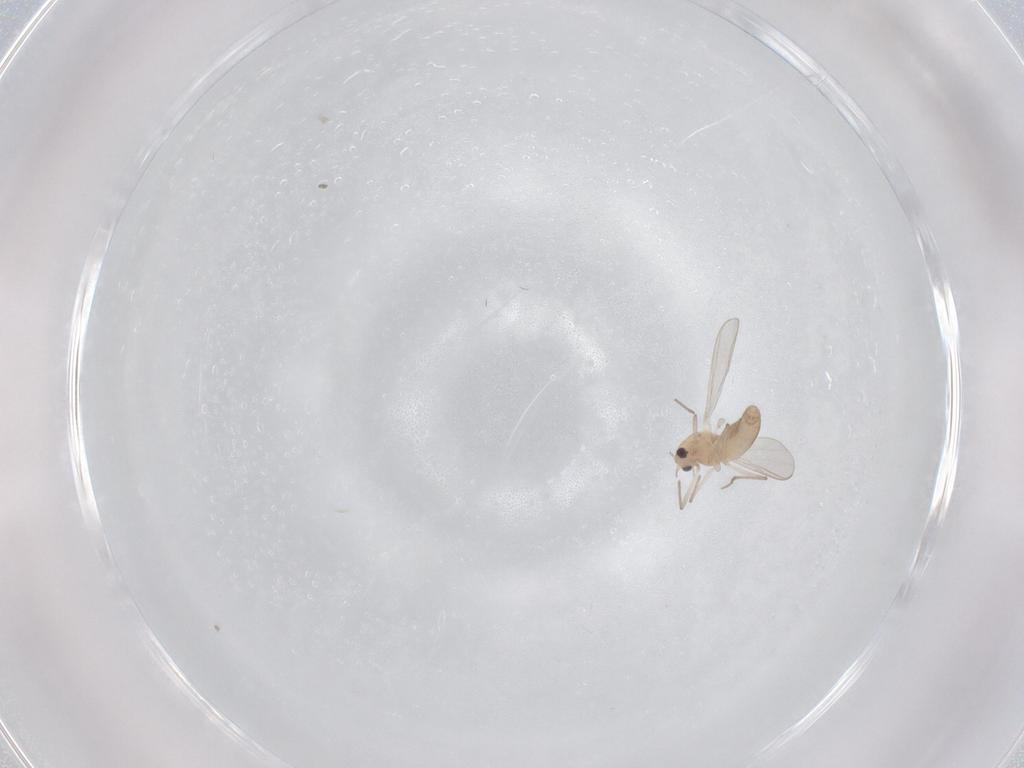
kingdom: Animalia
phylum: Arthropoda
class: Insecta
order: Diptera
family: Chironomidae
